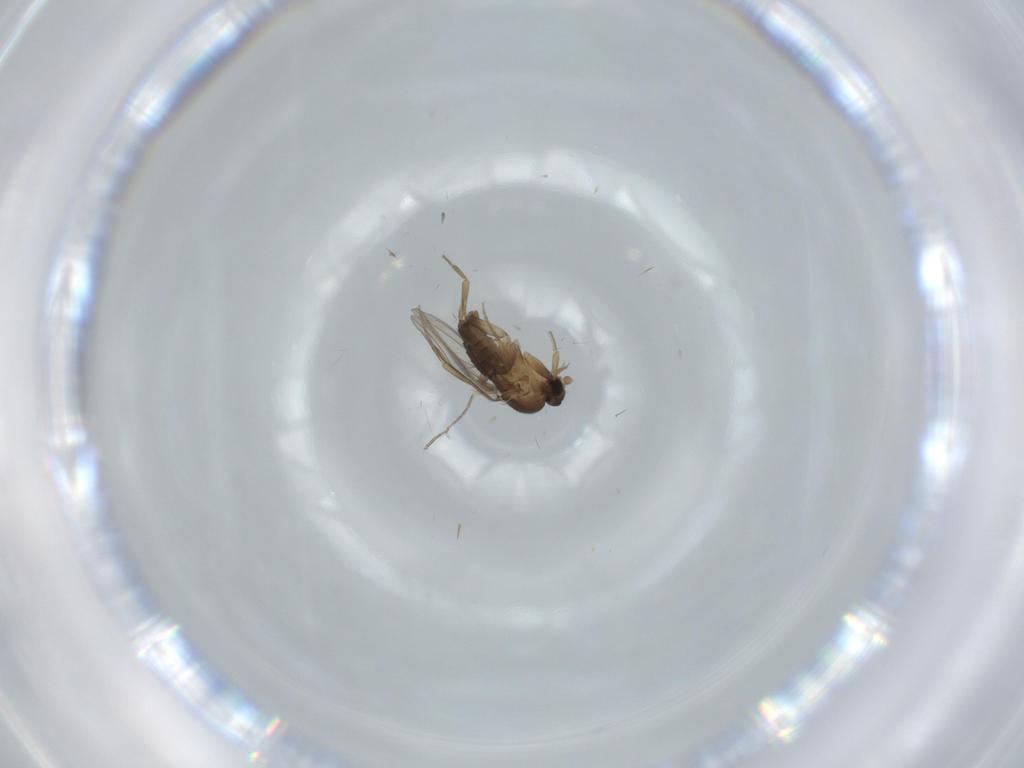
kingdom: Animalia
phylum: Arthropoda
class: Insecta
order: Diptera
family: Phoridae
